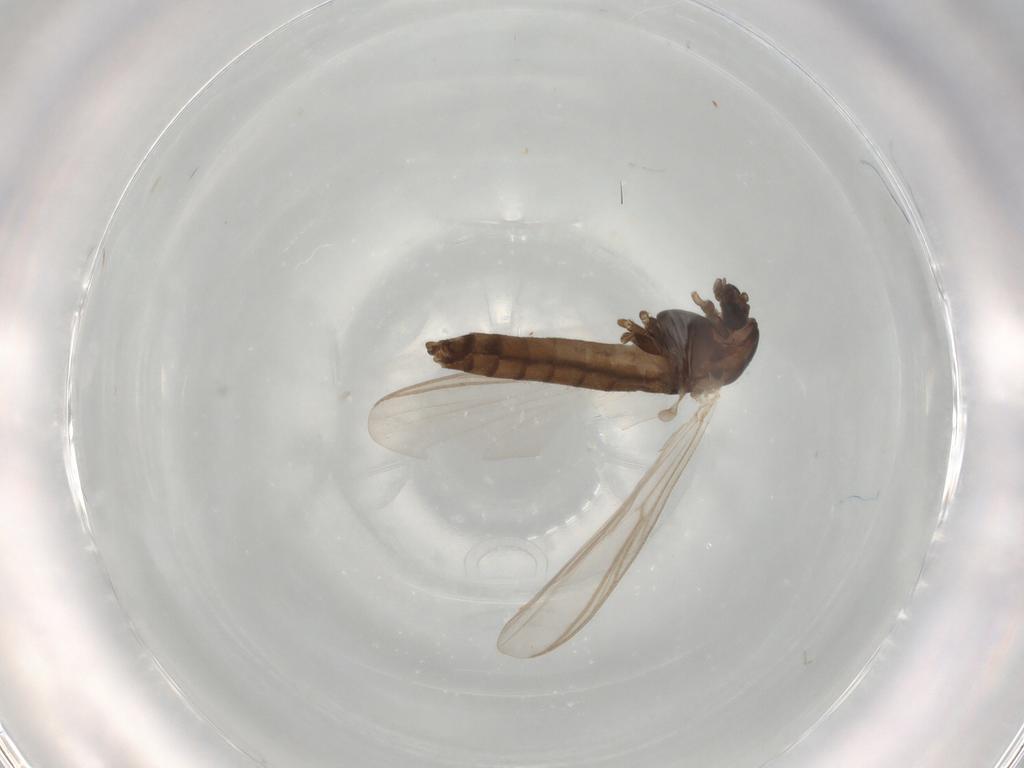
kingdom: Animalia
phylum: Arthropoda
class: Insecta
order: Diptera
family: Chironomidae
